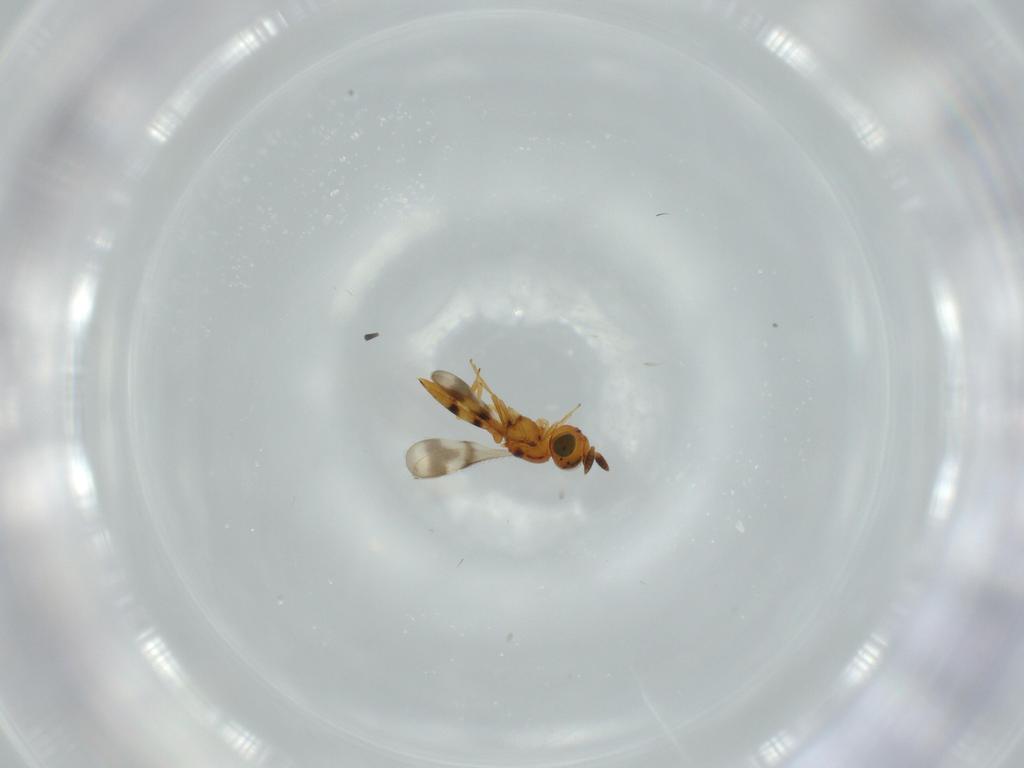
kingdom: Animalia
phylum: Arthropoda
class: Insecta
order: Hymenoptera
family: Scelionidae
